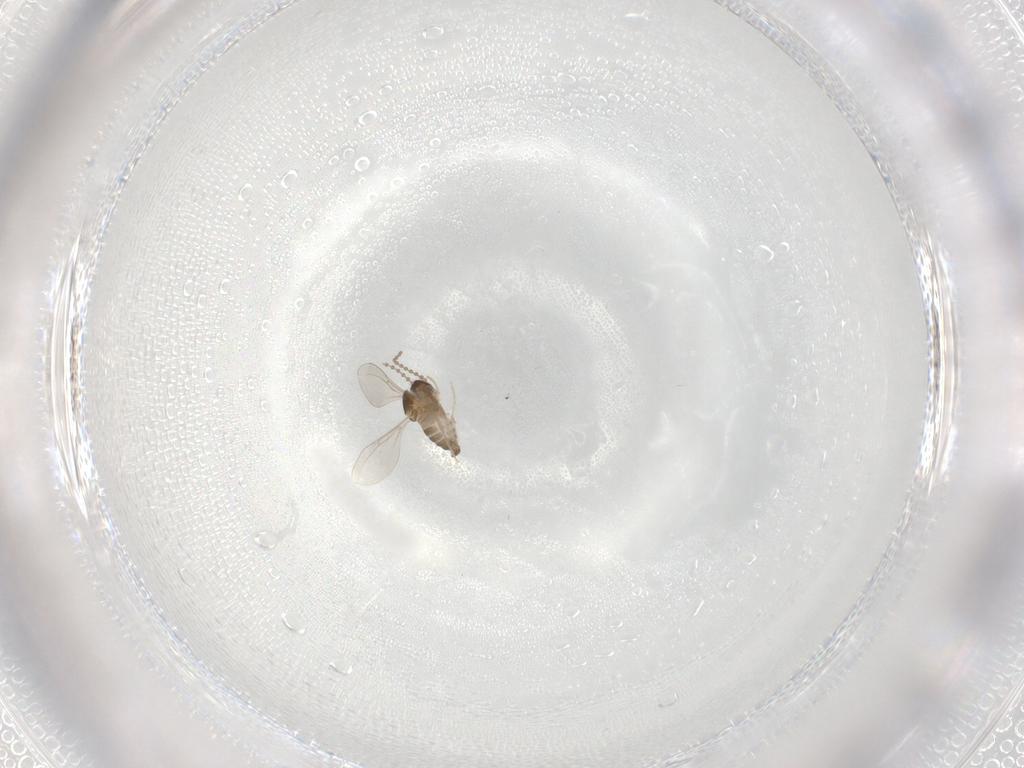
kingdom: Animalia
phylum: Arthropoda
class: Insecta
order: Diptera
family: Cecidomyiidae
